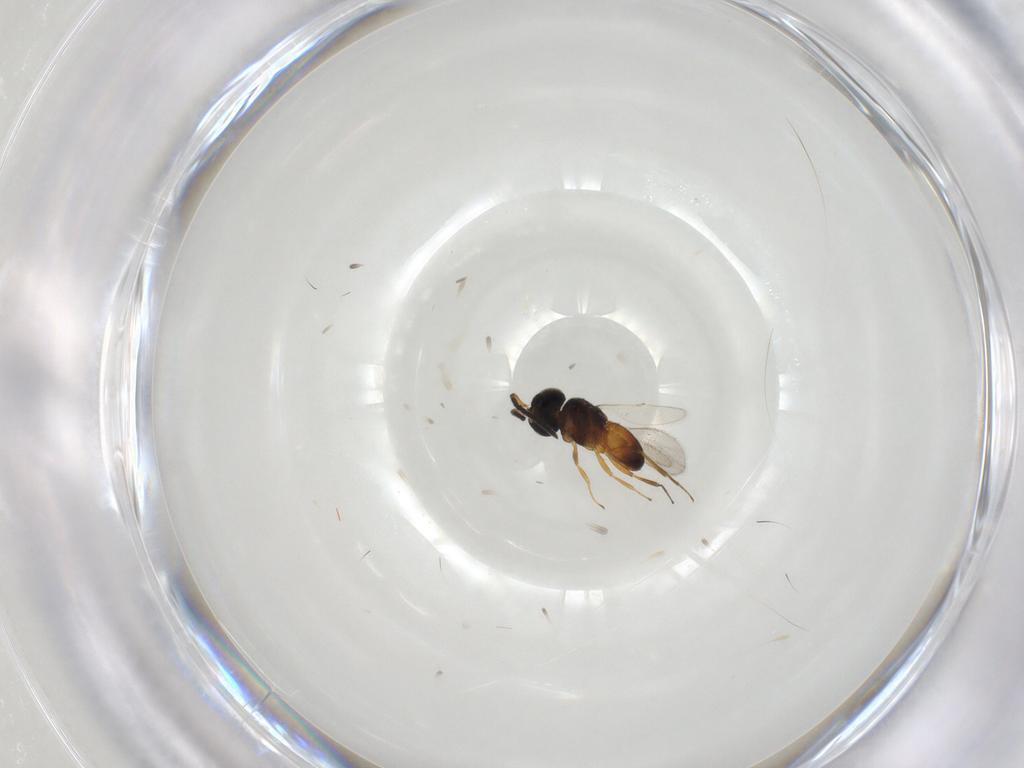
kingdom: Animalia
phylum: Arthropoda
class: Insecta
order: Hymenoptera
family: Scelionidae
